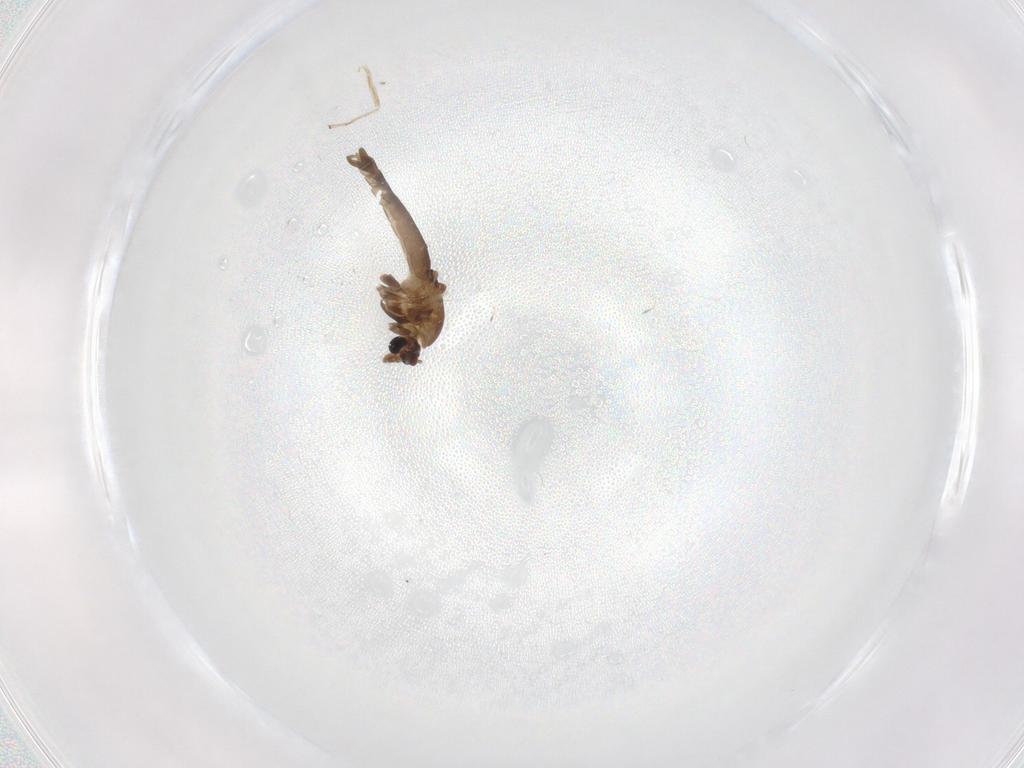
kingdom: Animalia
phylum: Arthropoda
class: Insecta
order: Diptera
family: Chironomidae
